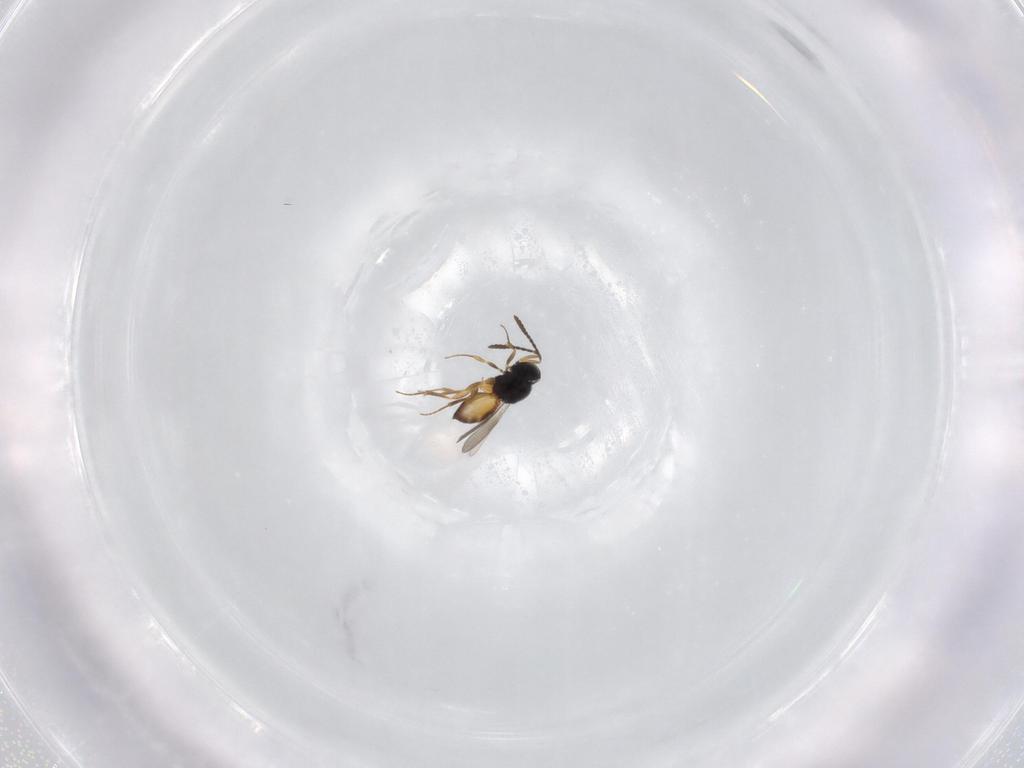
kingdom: Animalia
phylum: Arthropoda
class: Insecta
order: Hymenoptera
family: Scelionidae
